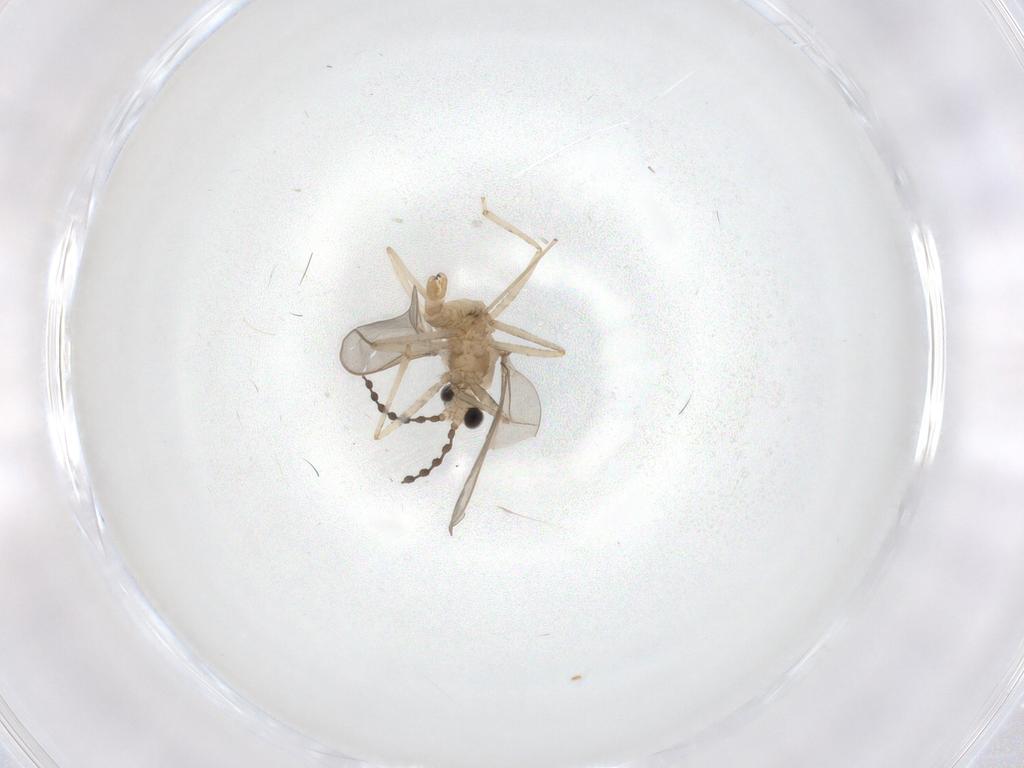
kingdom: Animalia
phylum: Arthropoda
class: Insecta
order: Diptera
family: Cecidomyiidae
